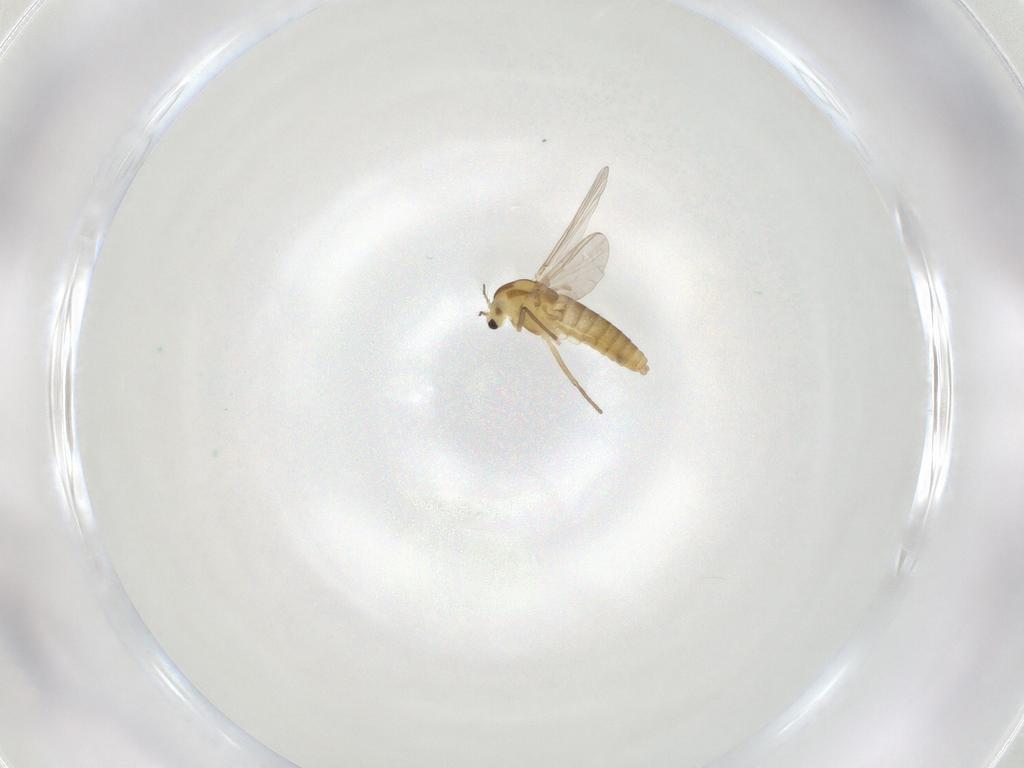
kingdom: Animalia
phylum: Arthropoda
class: Insecta
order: Diptera
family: Chironomidae
